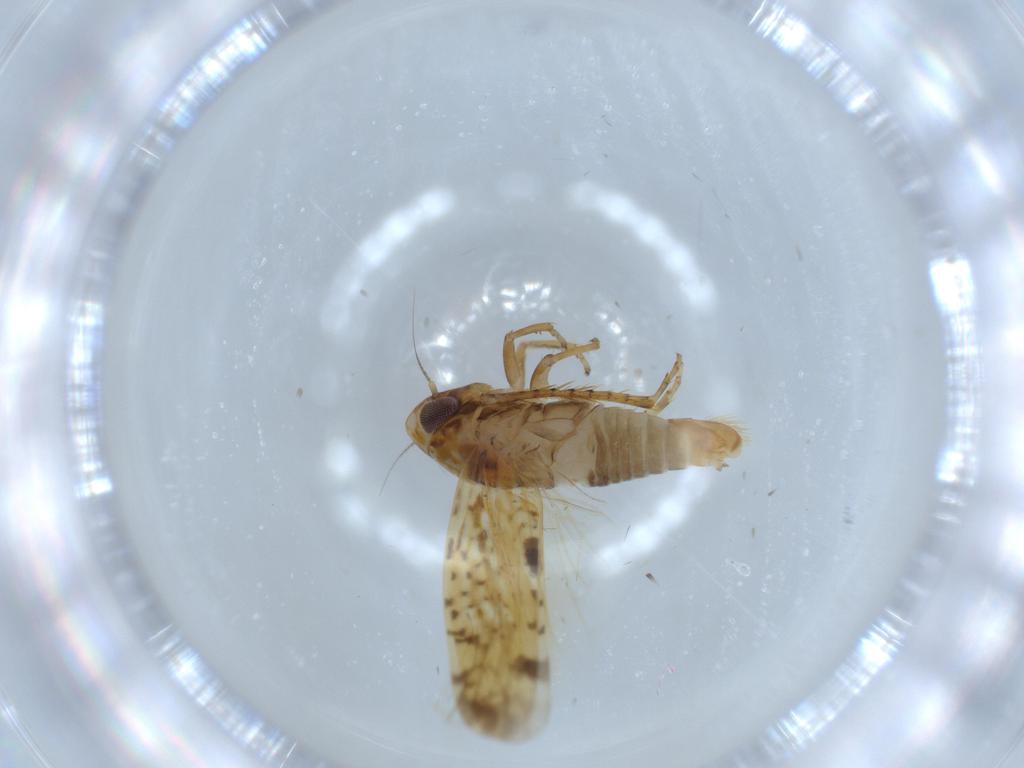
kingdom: Animalia
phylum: Arthropoda
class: Insecta
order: Hemiptera
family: Cicadellidae
